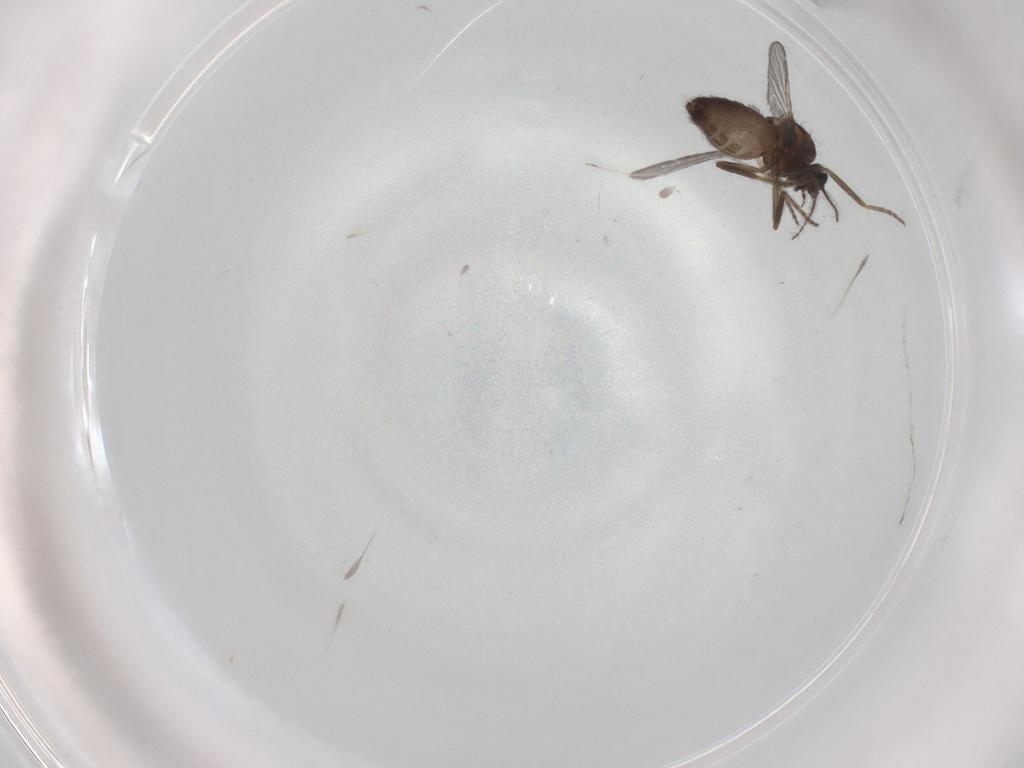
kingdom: Animalia
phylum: Arthropoda
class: Insecta
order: Diptera
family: Ceratopogonidae
